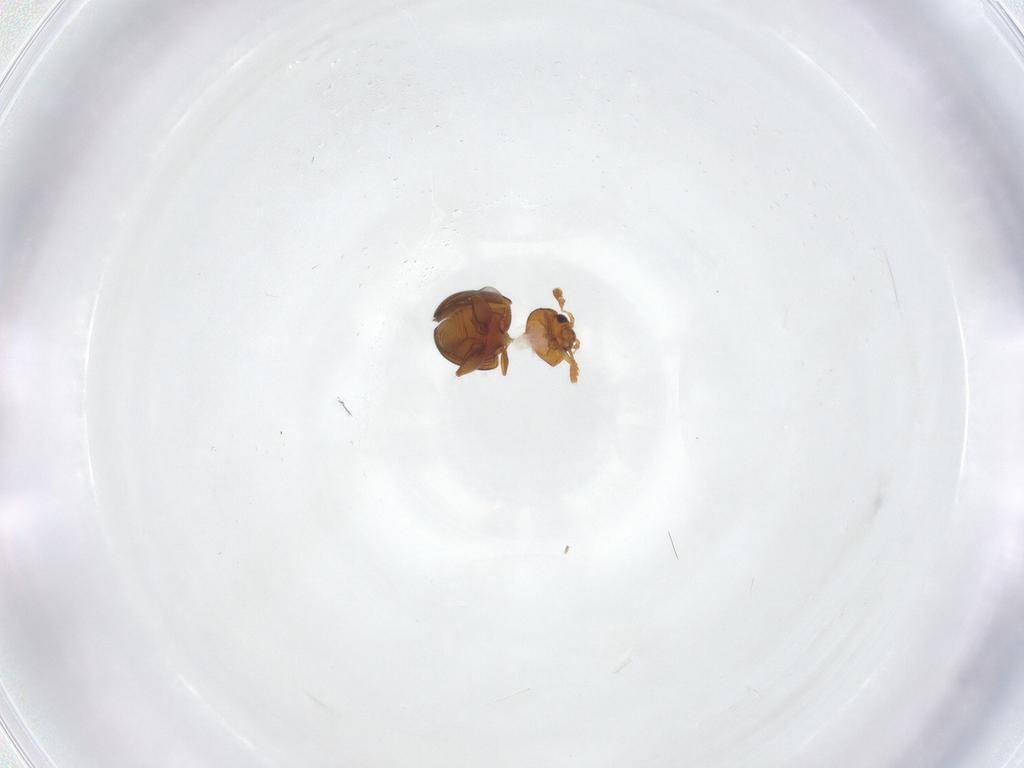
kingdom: Animalia
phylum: Arthropoda
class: Insecta
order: Coleoptera
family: Chrysomelidae
